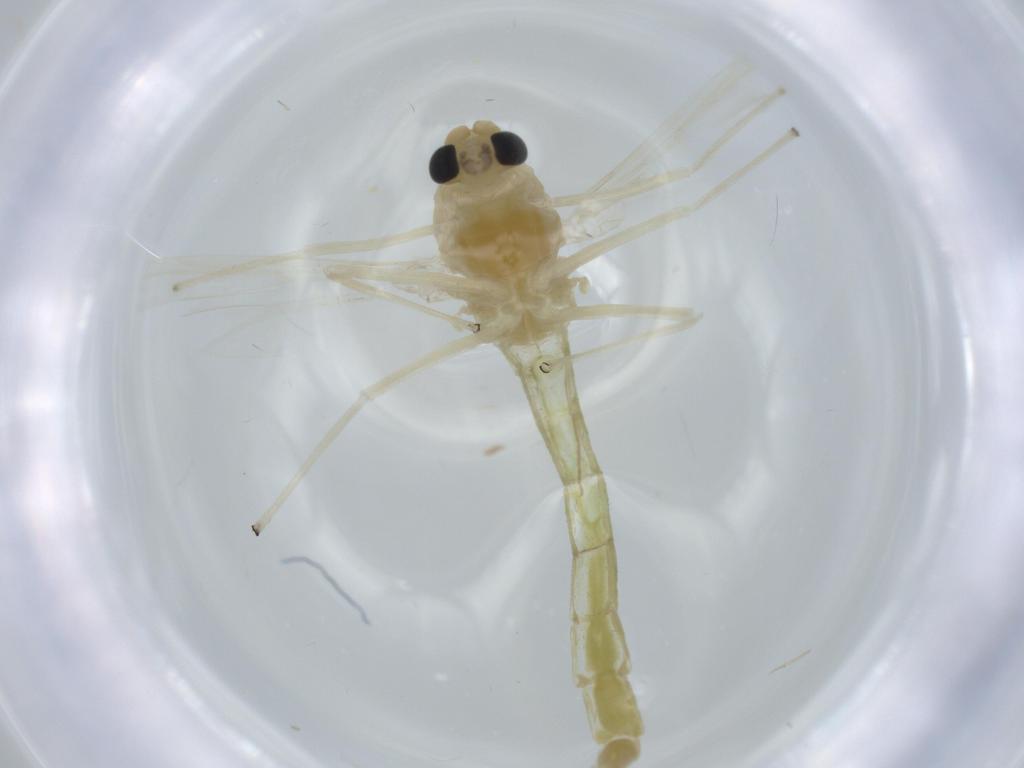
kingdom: Animalia
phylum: Arthropoda
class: Insecta
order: Diptera
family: Chironomidae
